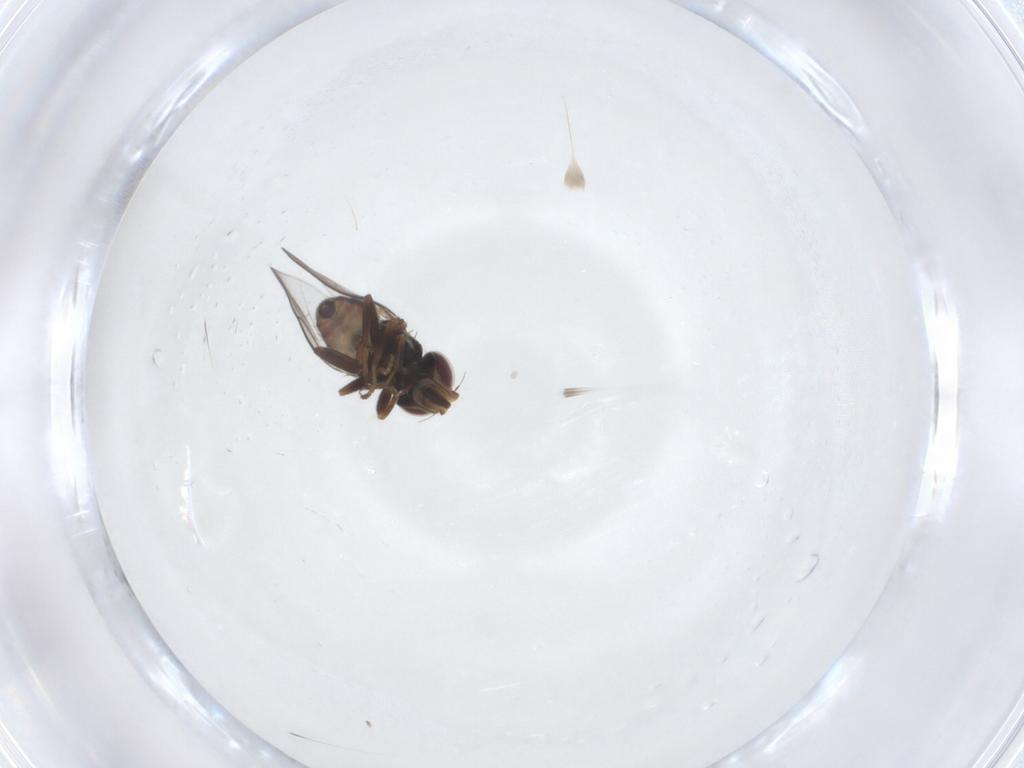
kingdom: Animalia
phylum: Arthropoda
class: Insecta
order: Diptera
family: Chloropidae
